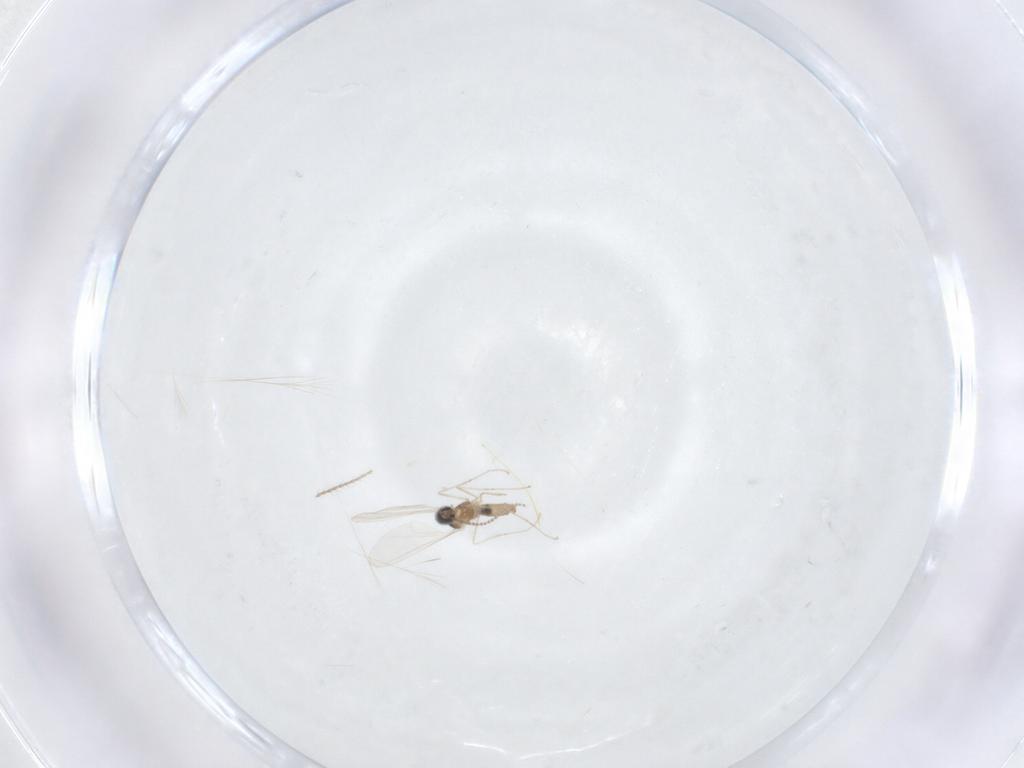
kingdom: Animalia
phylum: Arthropoda
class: Insecta
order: Diptera
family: Cecidomyiidae
